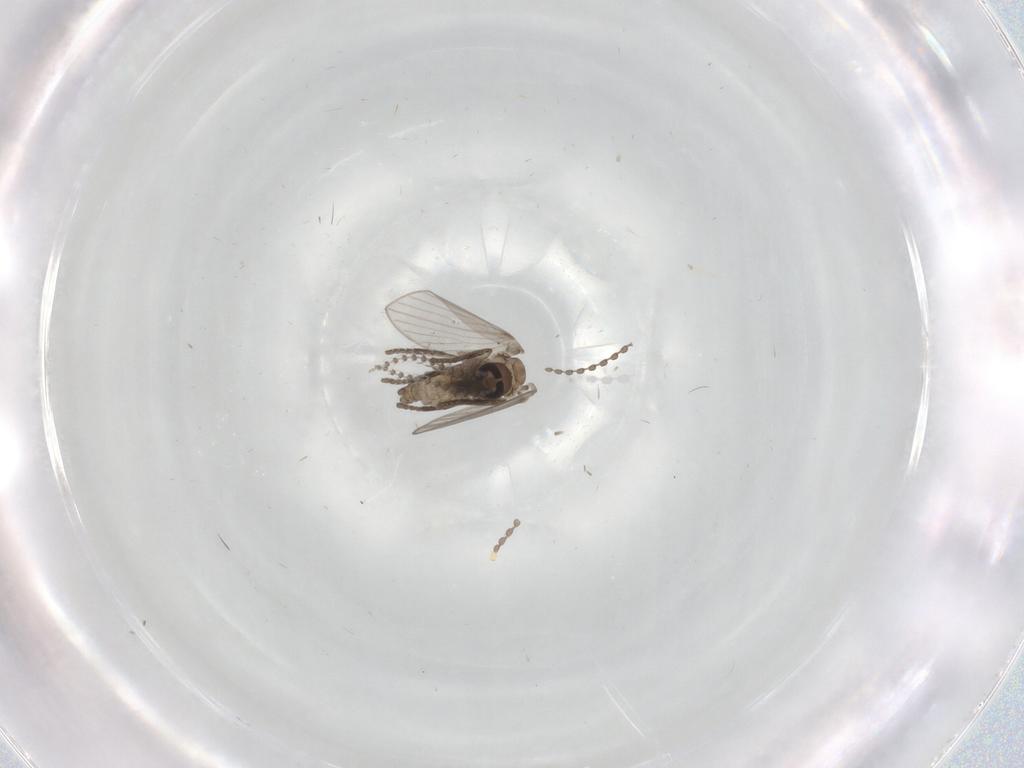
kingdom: Animalia
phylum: Arthropoda
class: Insecta
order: Diptera
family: Psychodidae
